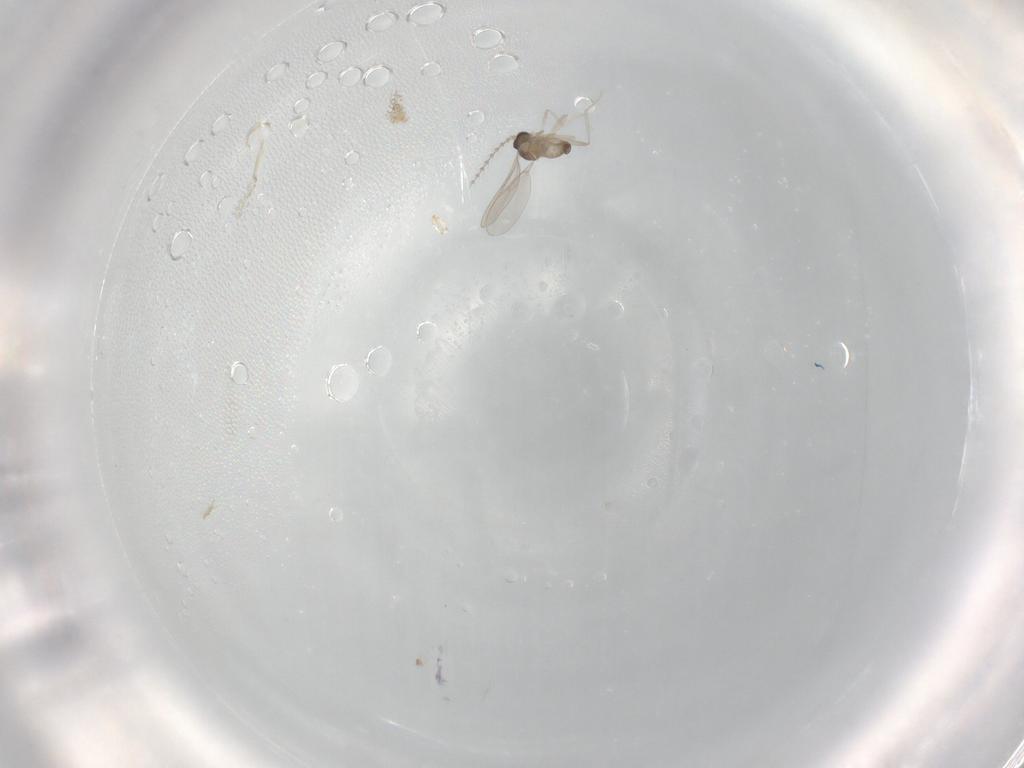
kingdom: Animalia
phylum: Arthropoda
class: Insecta
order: Diptera
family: Cecidomyiidae
